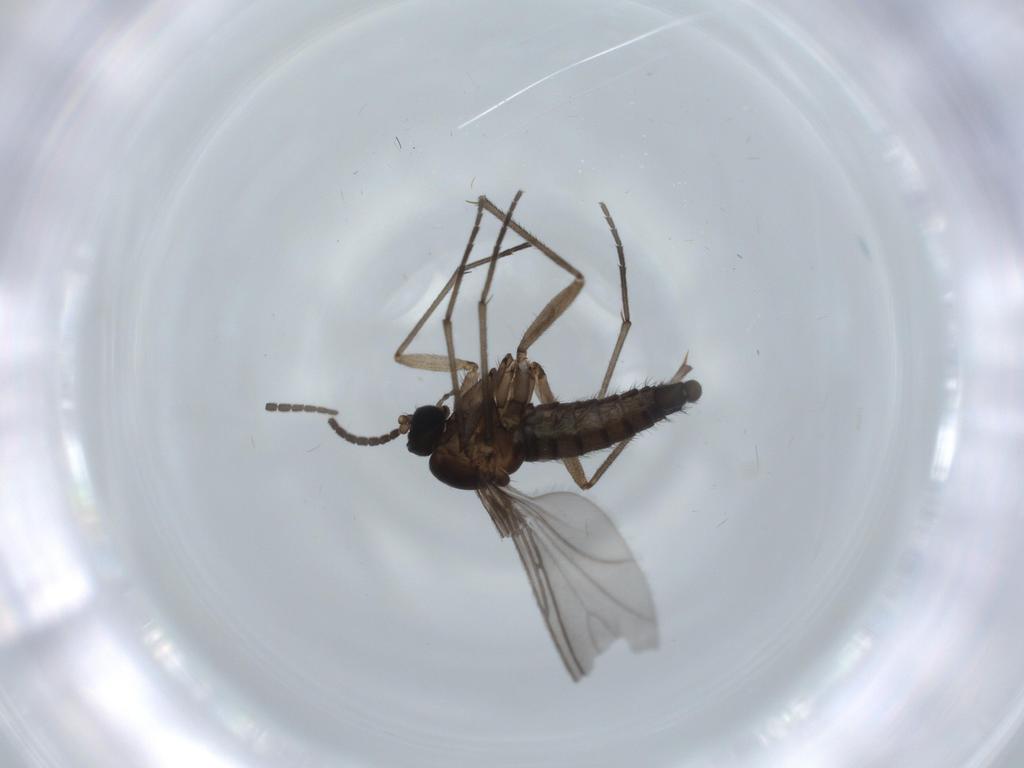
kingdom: Animalia
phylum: Arthropoda
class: Insecta
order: Diptera
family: Sciaridae
